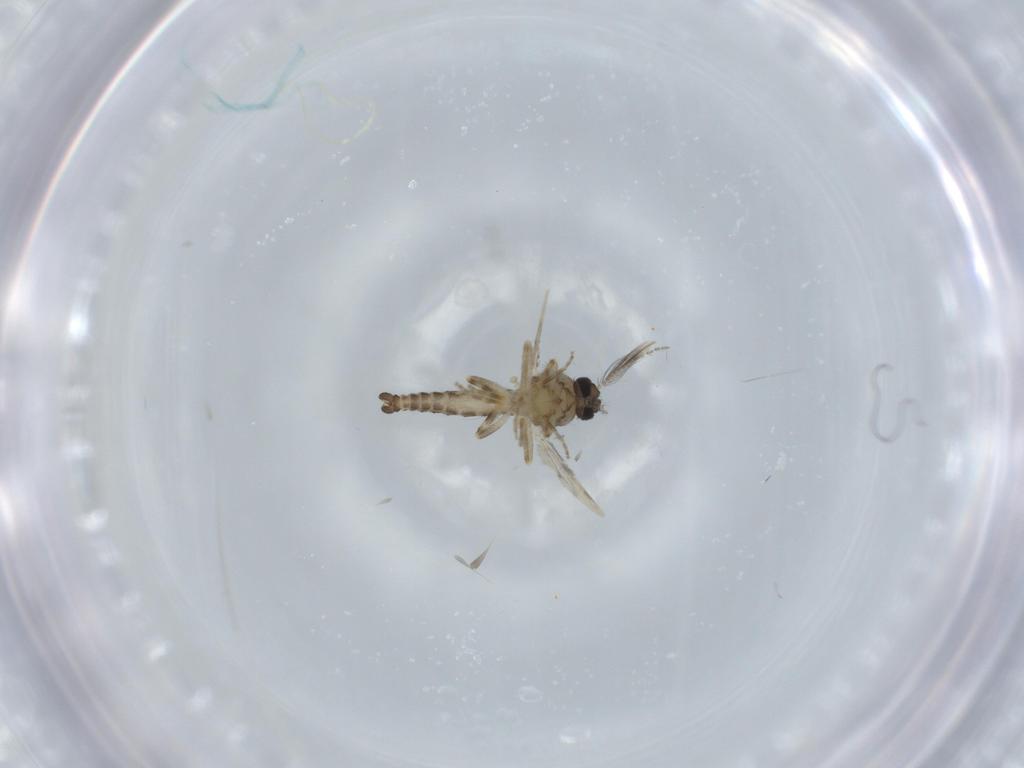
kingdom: Animalia
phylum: Arthropoda
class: Insecta
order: Diptera
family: Ceratopogonidae
